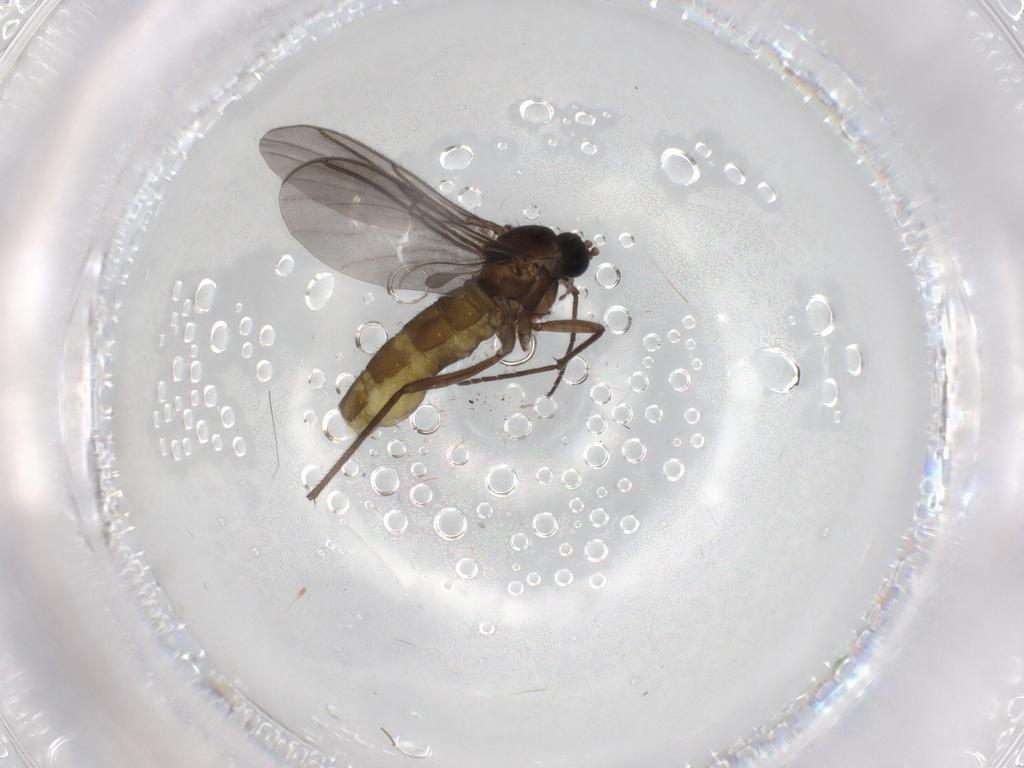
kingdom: Animalia
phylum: Arthropoda
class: Insecta
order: Diptera
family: Sciaridae
